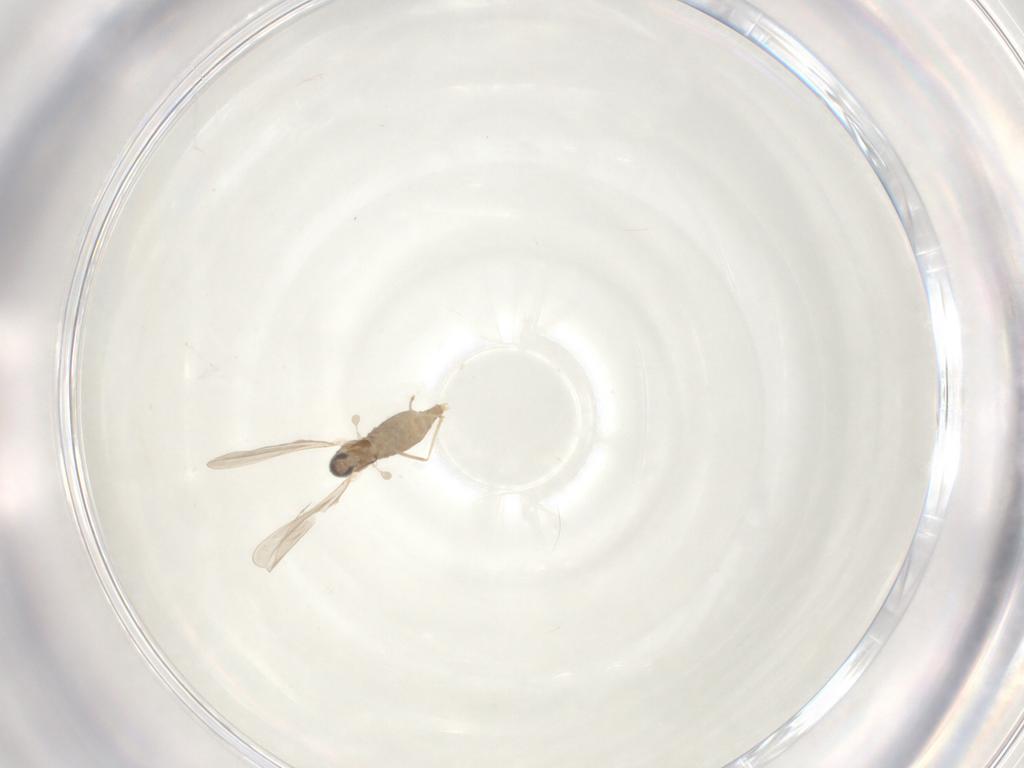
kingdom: Animalia
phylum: Arthropoda
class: Insecta
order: Diptera
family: Cecidomyiidae
